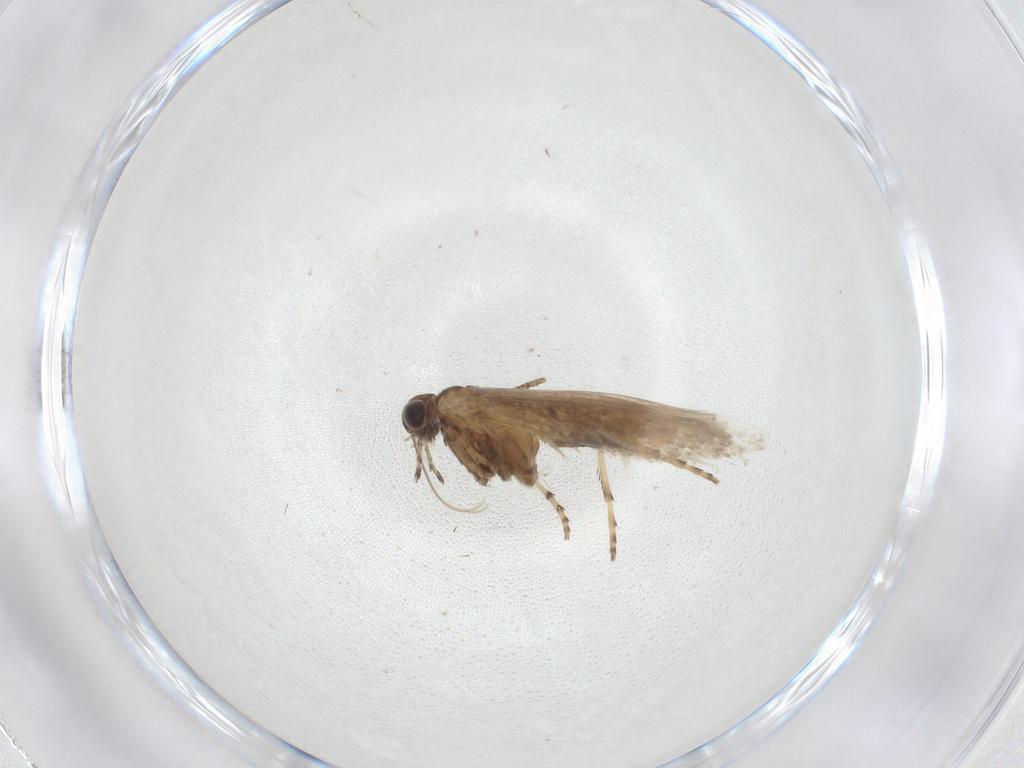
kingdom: Animalia
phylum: Arthropoda
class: Insecta
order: Lepidoptera
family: Gracillariidae
